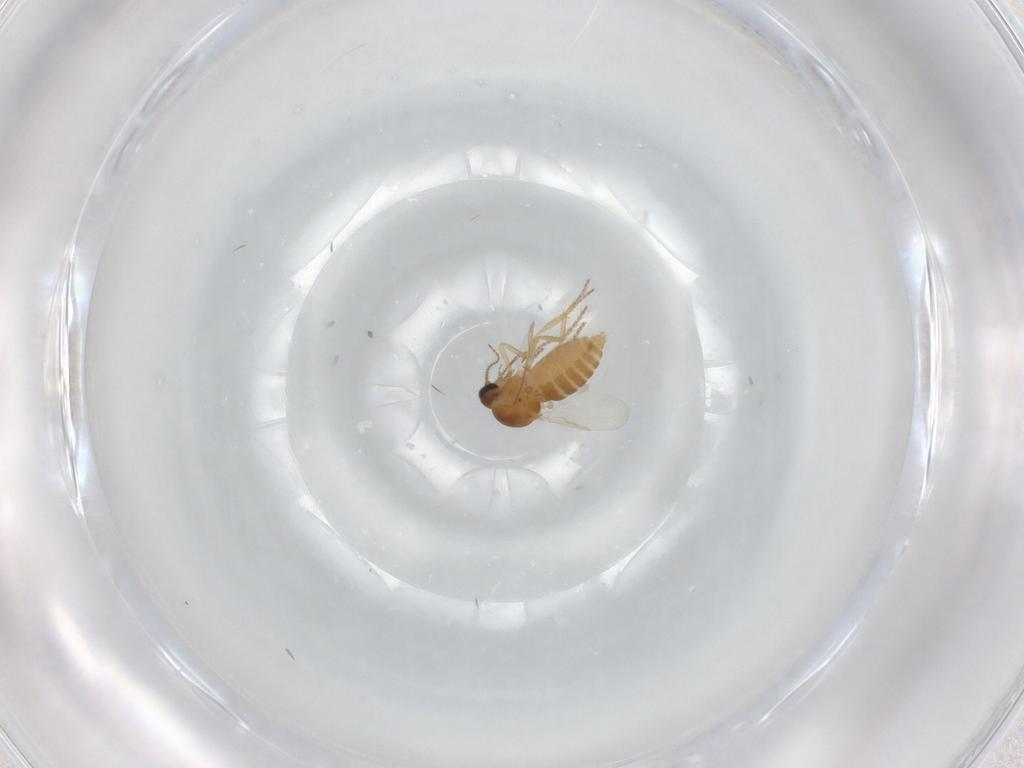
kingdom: Animalia
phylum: Arthropoda
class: Insecta
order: Diptera
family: Ceratopogonidae
